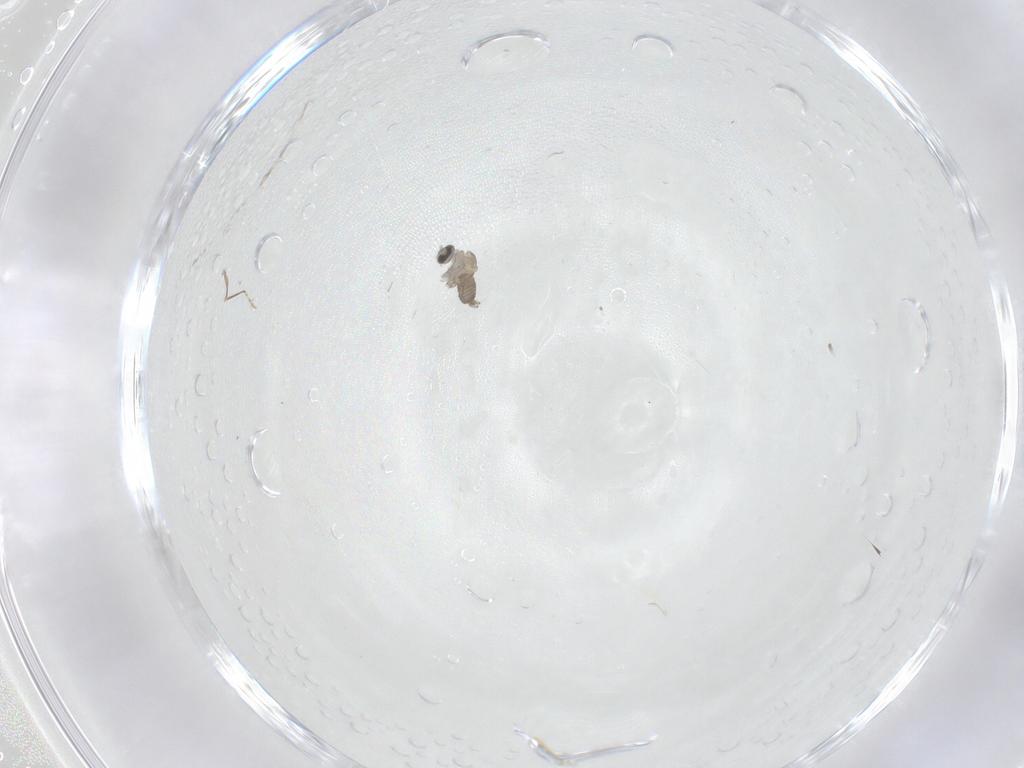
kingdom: Animalia
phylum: Arthropoda
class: Insecta
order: Diptera
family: Cecidomyiidae
